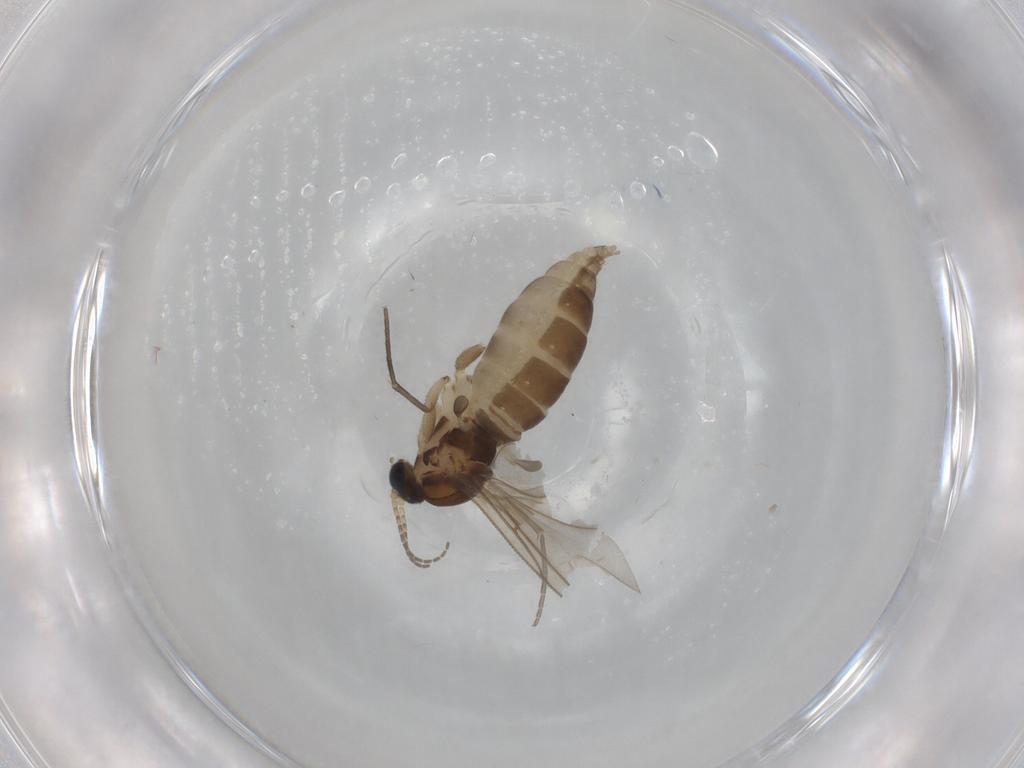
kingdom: Animalia
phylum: Arthropoda
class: Insecta
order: Diptera
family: Sciaridae
